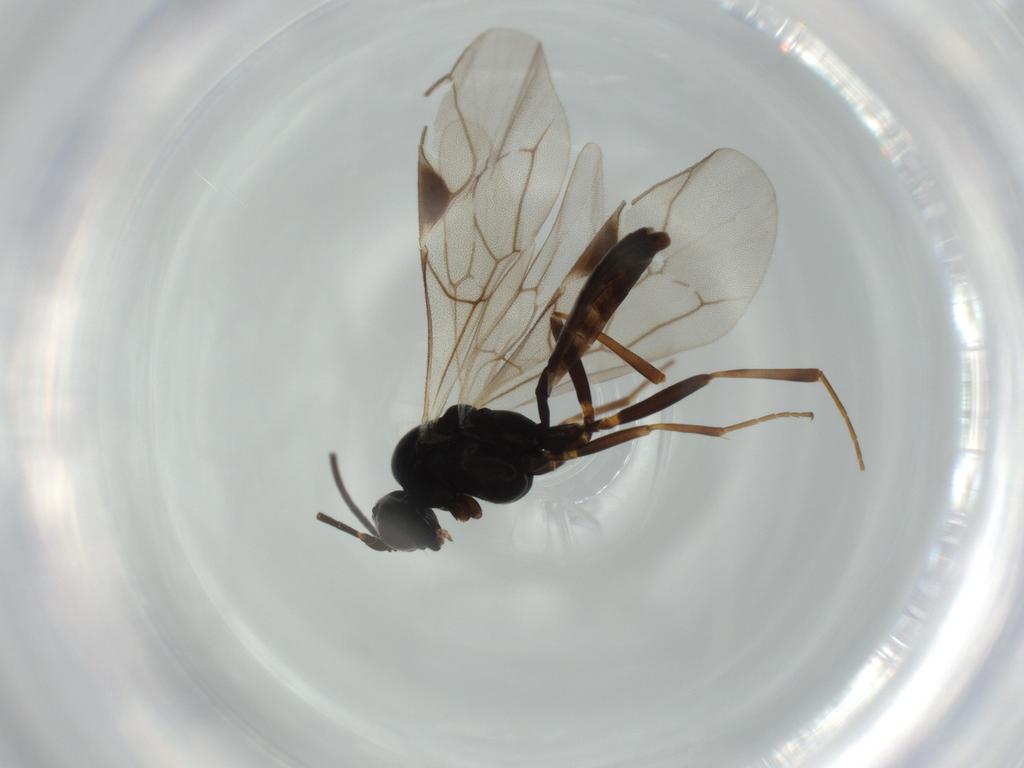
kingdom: Animalia
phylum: Arthropoda
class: Insecta
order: Hymenoptera
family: Ichneumonidae
